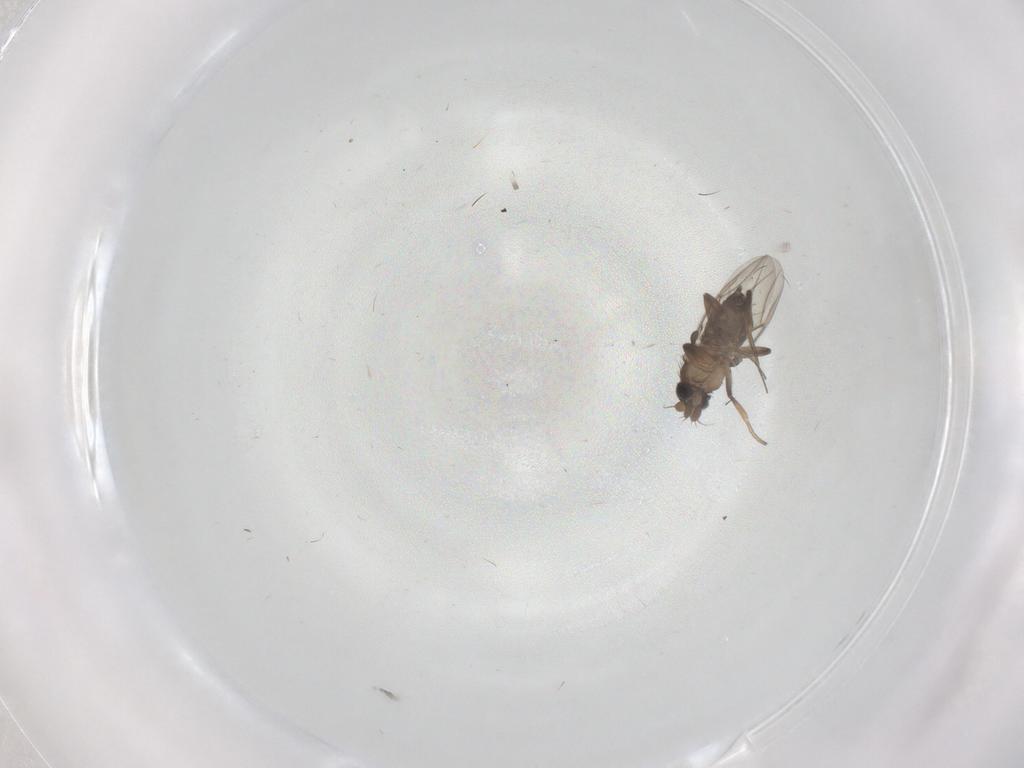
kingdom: Animalia
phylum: Arthropoda
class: Insecta
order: Diptera
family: Phoridae
